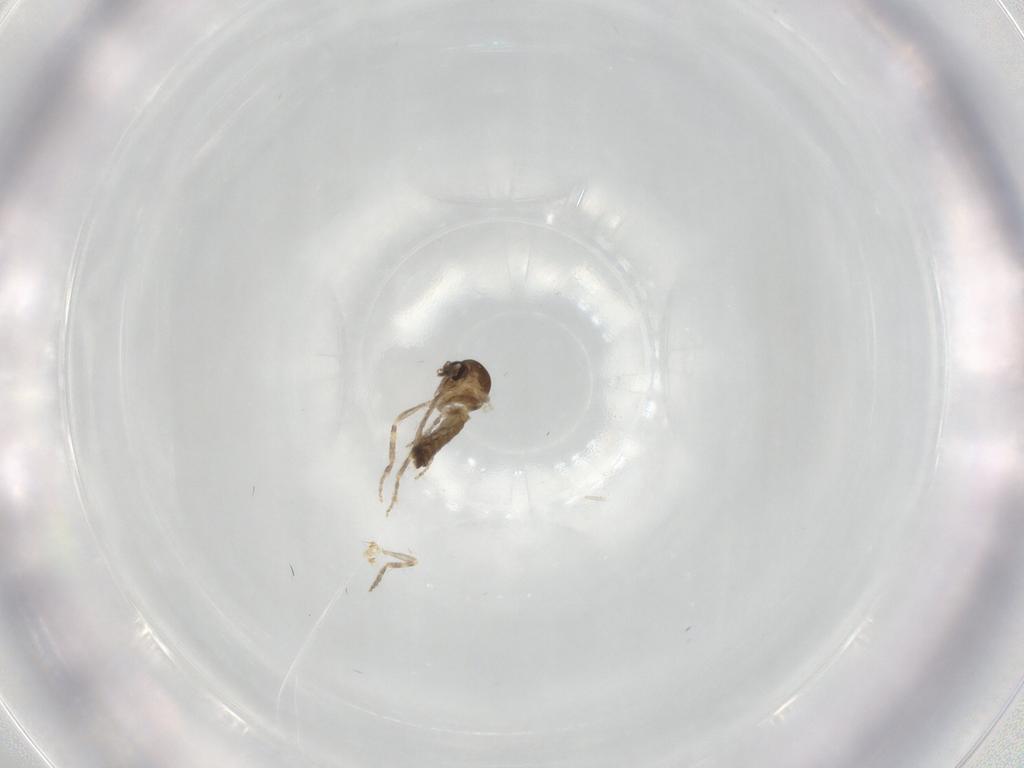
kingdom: Animalia
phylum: Arthropoda
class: Insecta
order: Diptera
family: Ceratopogonidae
